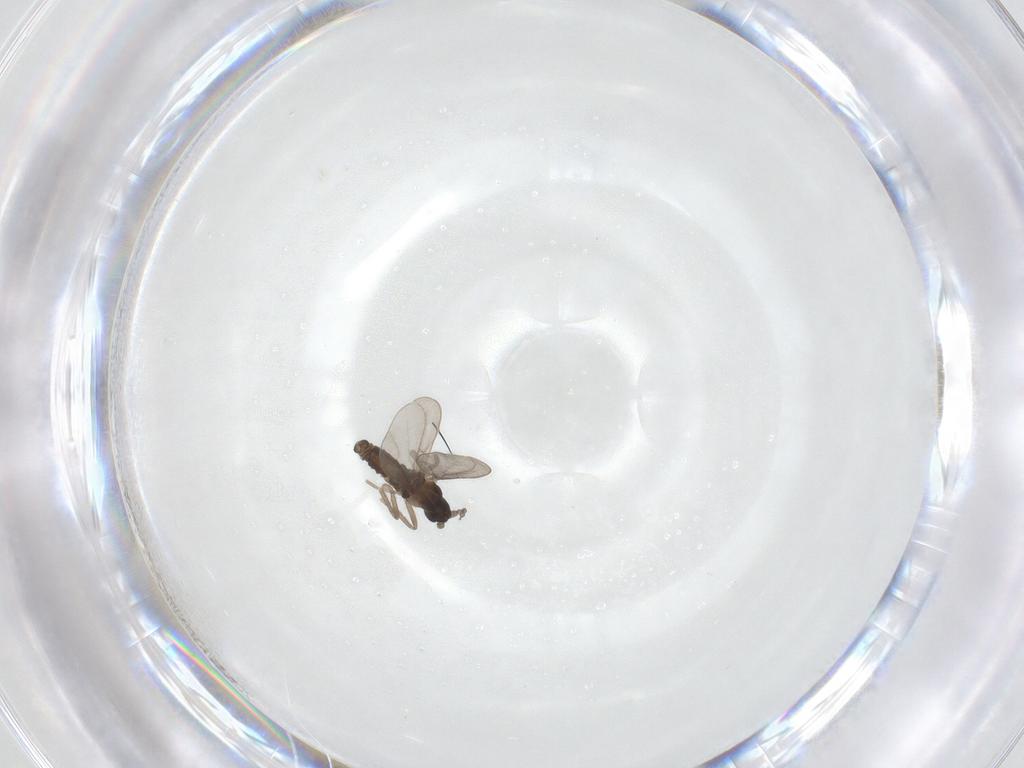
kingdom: Animalia
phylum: Arthropoda
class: Insecta
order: Diptera
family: Cecidomyiidae
